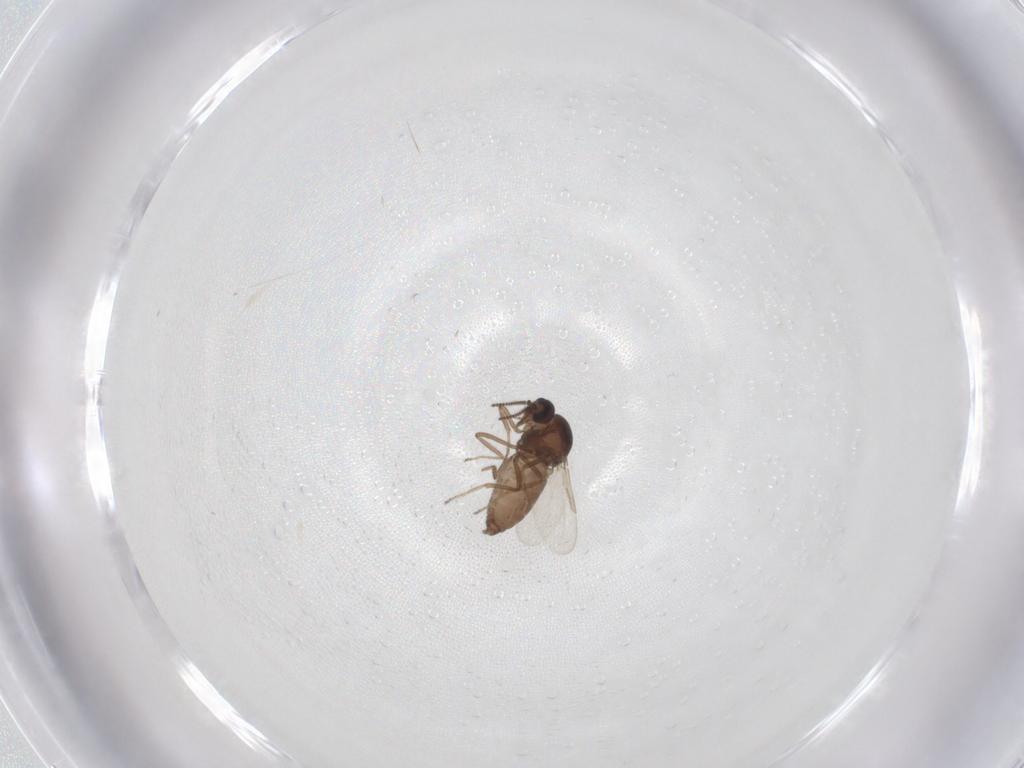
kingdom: Animalia
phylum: Arthropoda
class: Insecta
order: Diptera
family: Ceratopogonidae
